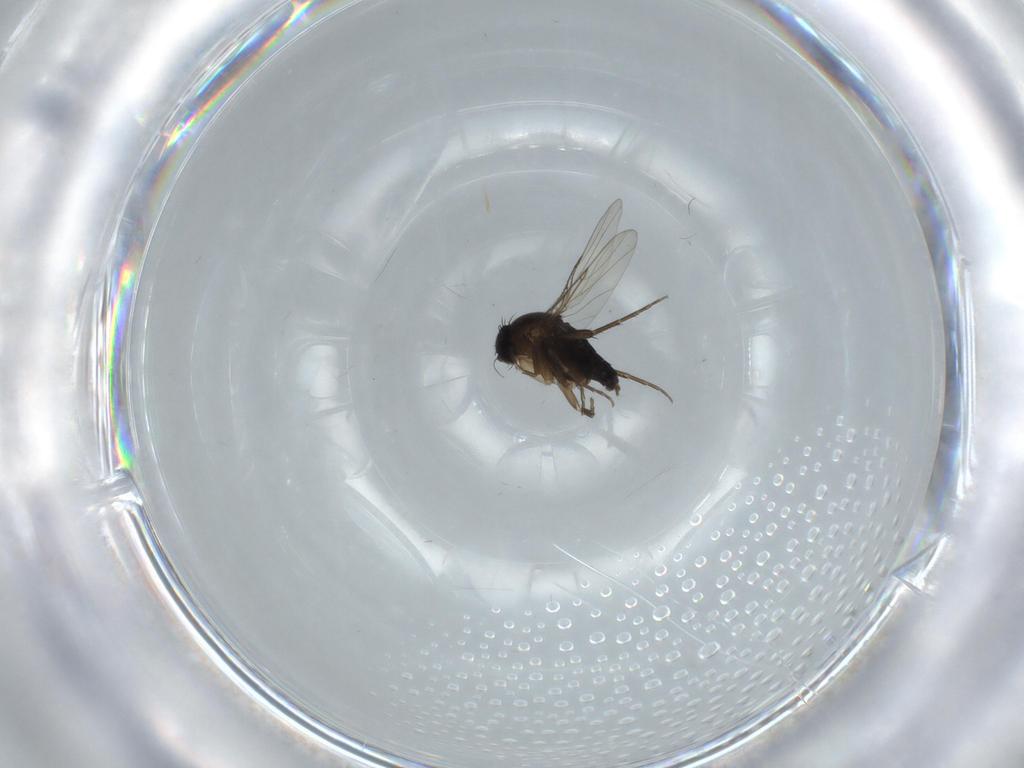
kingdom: Animalia
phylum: Arthropoda
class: Insecta
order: Diptera
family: Phoridae
